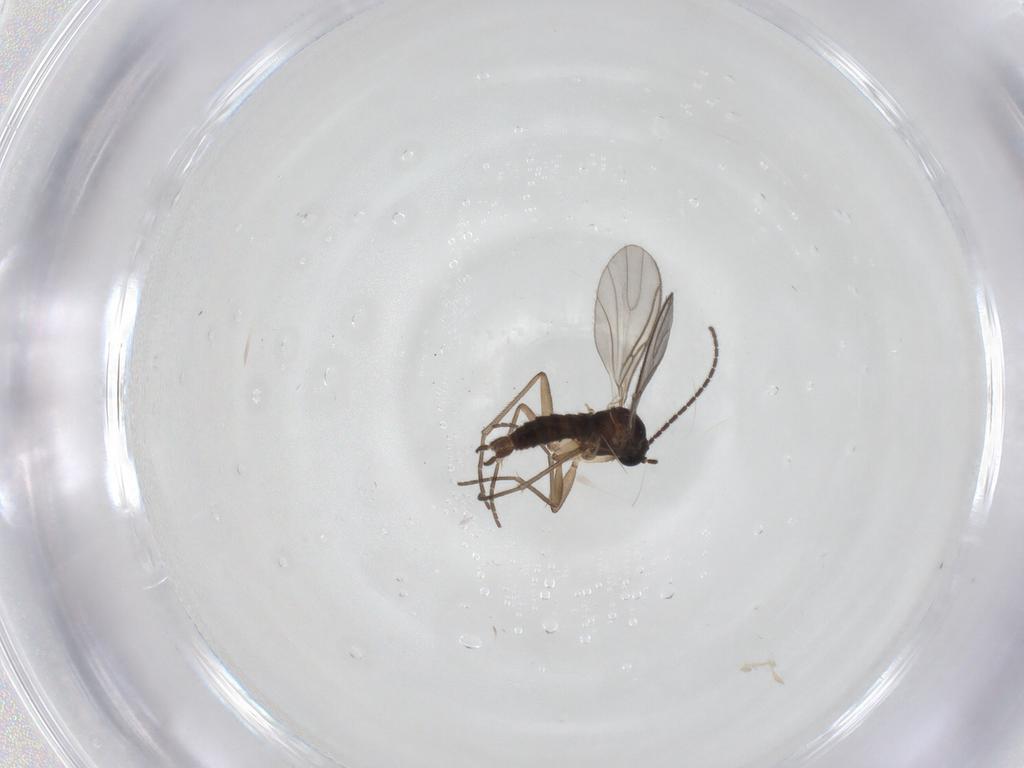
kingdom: Animalia
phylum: Arthropoda
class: Insecta
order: Diptera
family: Sciaridae
